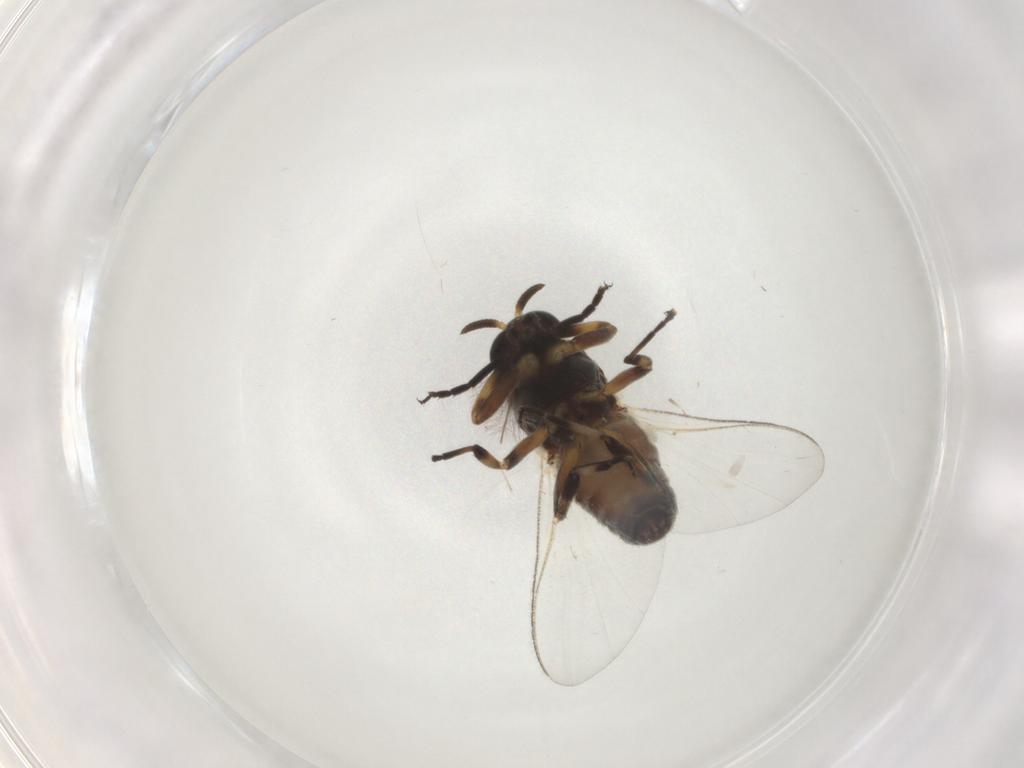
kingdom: Animalia
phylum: Arthropoda
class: Insecta
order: Diptera
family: Chironomidae
